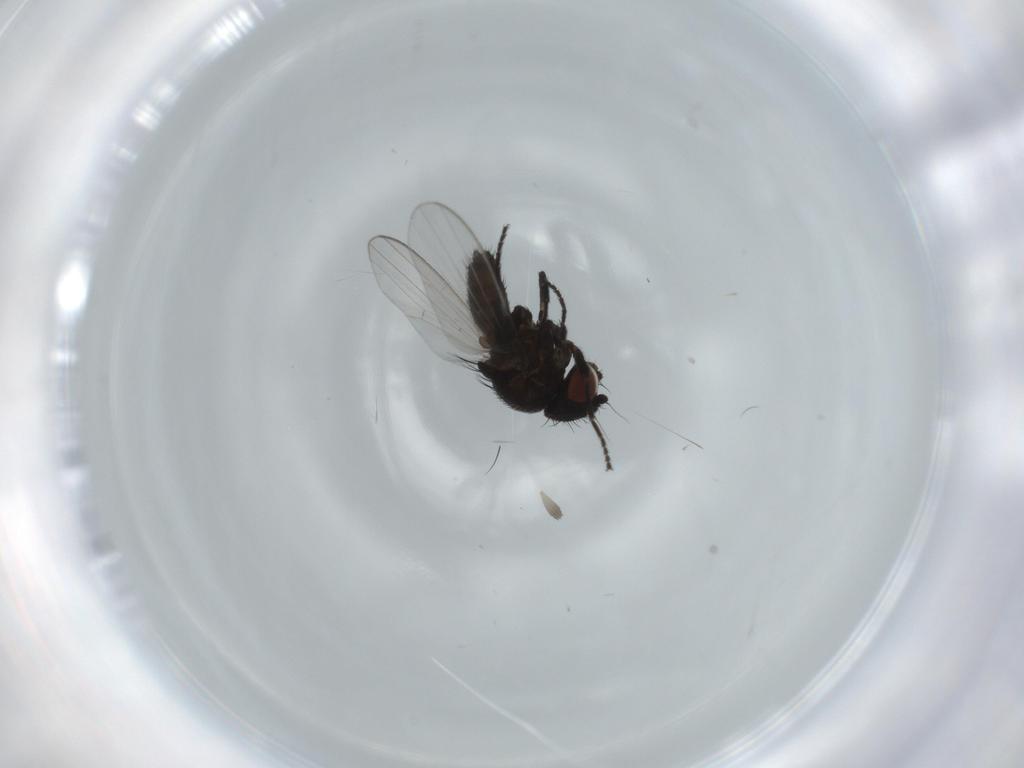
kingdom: Animalia
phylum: Arthropoda
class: Insecta
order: Diptera
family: Milichiidae
